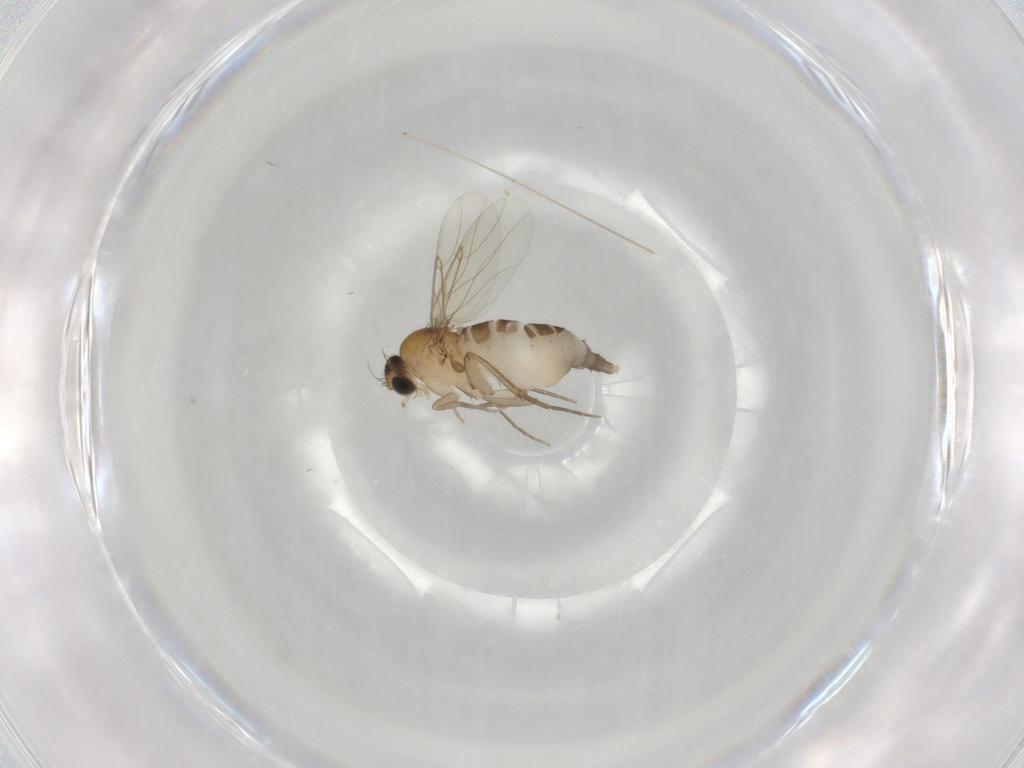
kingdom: Animalia
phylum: Arthropoda
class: Insecta
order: Diptera
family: Phoridae
